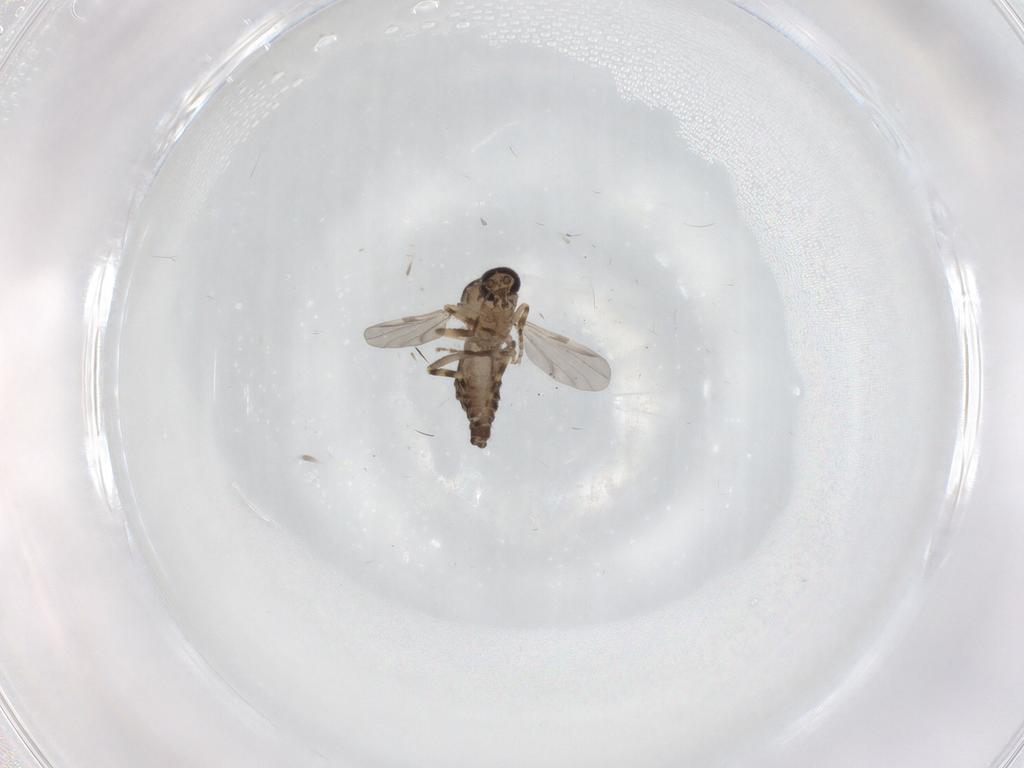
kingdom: Animalia
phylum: Arthropoda
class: Insecta
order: Diptera
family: Ceratopogonidae
